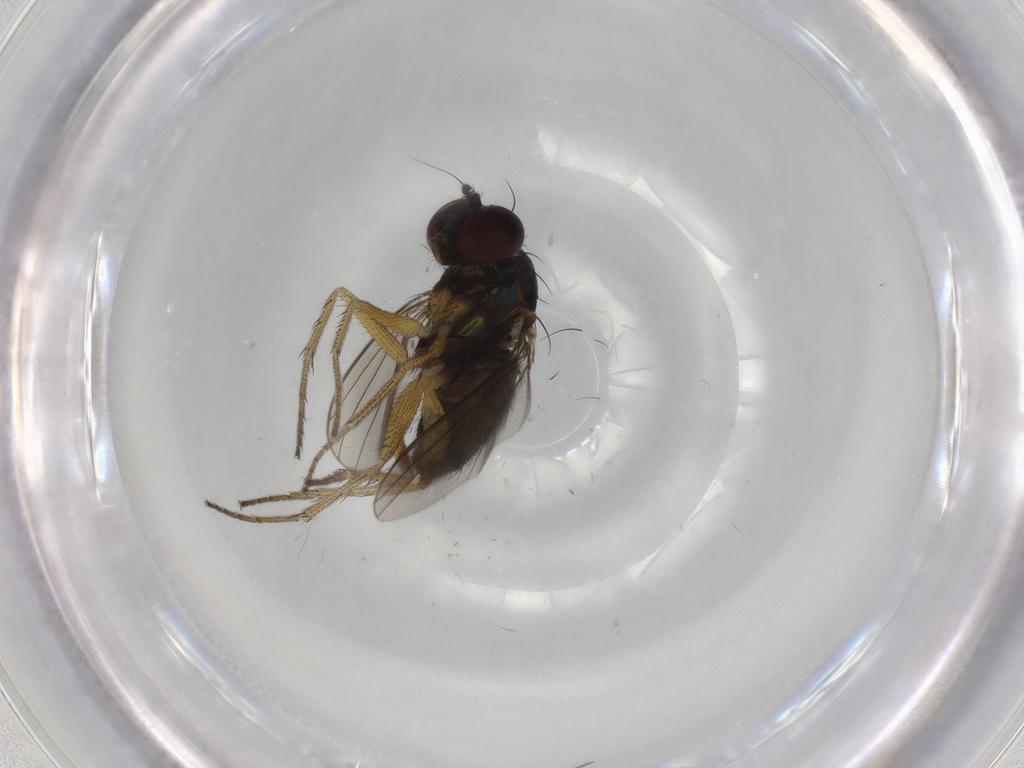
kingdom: Animalia
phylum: Arthropoda
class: Insecta
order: Diptera
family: Dolichopodidae
